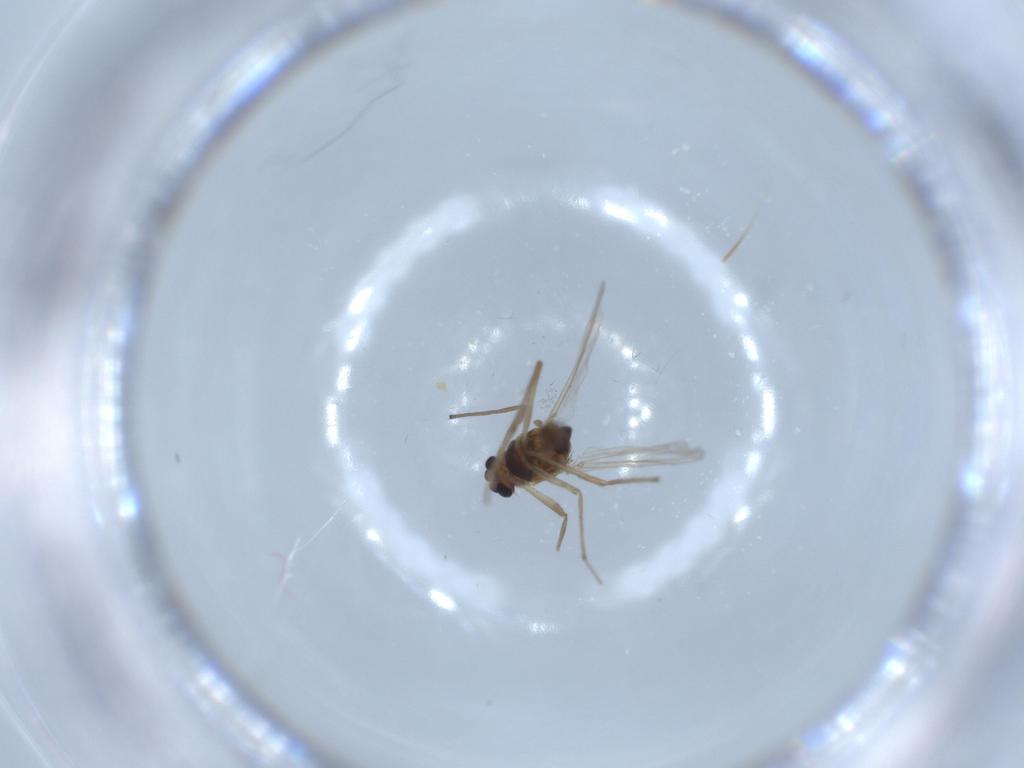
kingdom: Animalia
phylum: Arthropoda
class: Insecta
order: Diptera
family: Chironomidae
